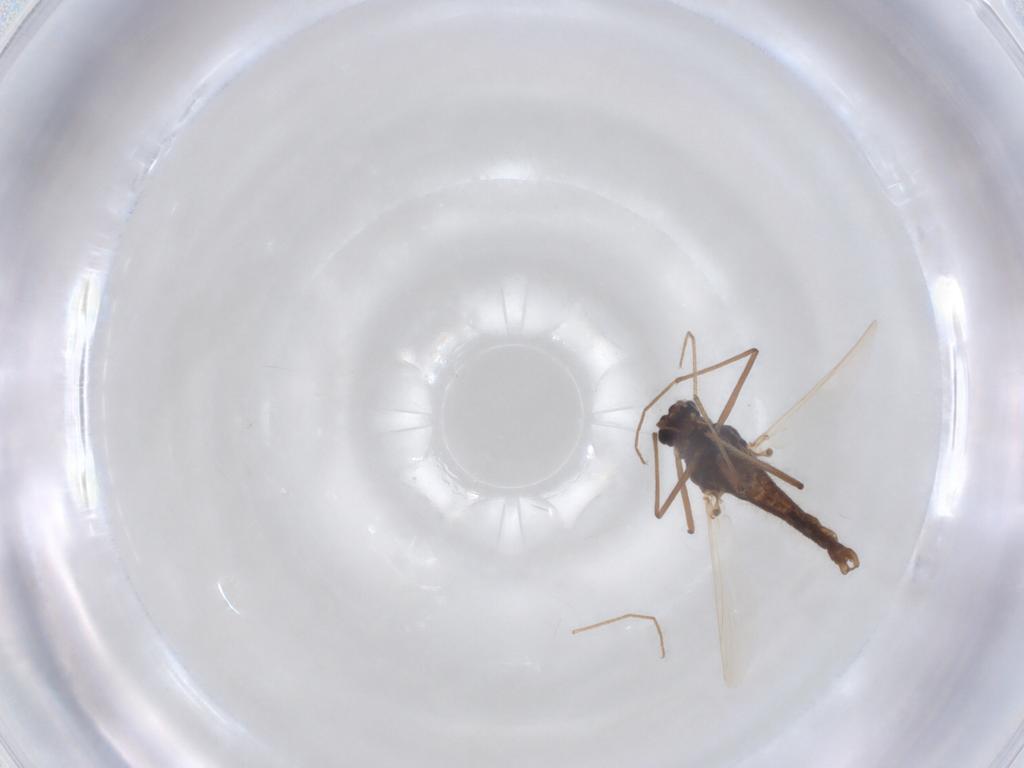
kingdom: Animalia
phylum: Arthropoda
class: Insecta
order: Diptera
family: Chironomidae
